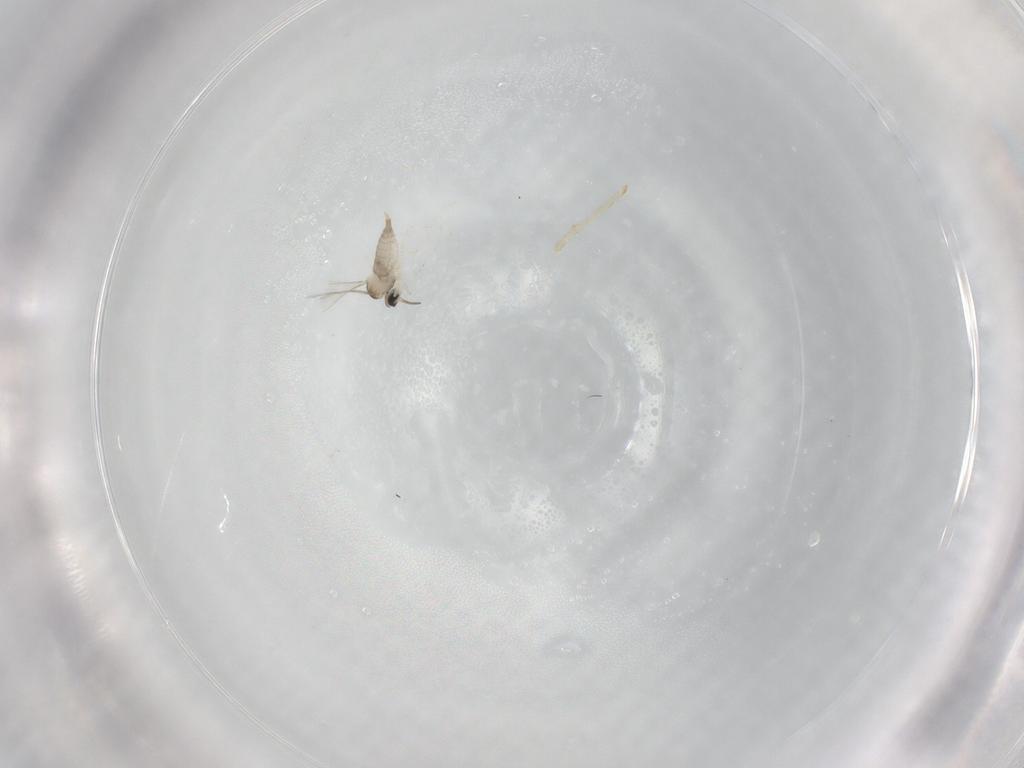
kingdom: Animalia
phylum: Arthropoda
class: Insecta
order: Diptera
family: Chironomidae
